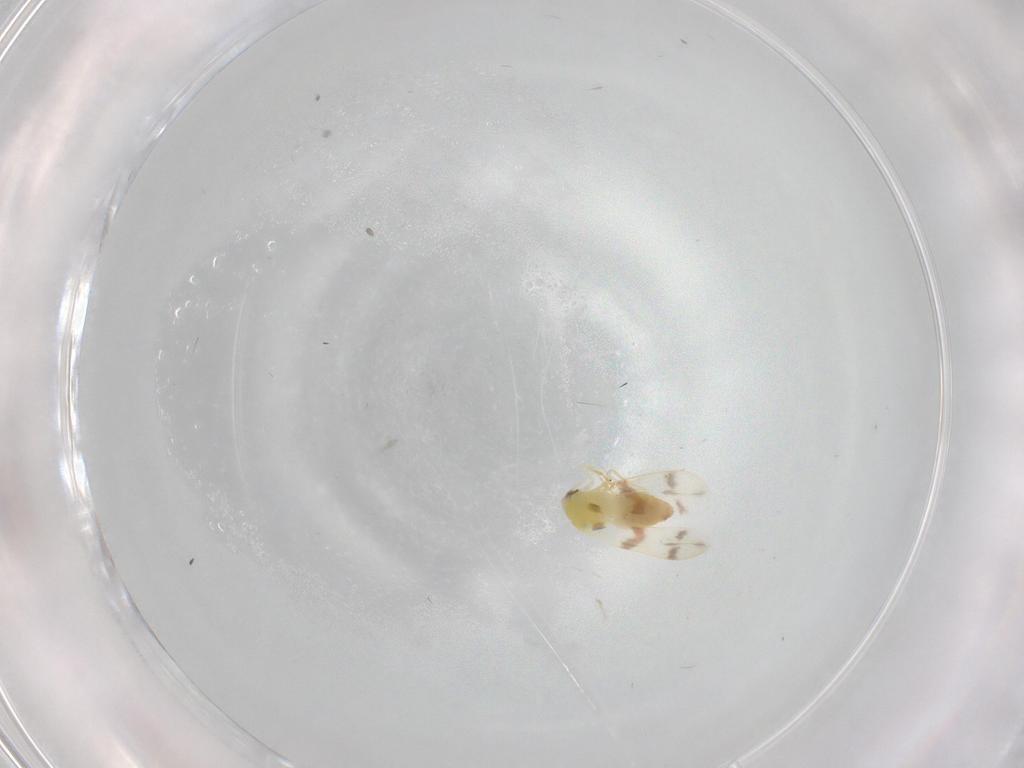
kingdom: Animalia
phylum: Arthropoda
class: Insecta
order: Hemiptera
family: Aleyrodidae
